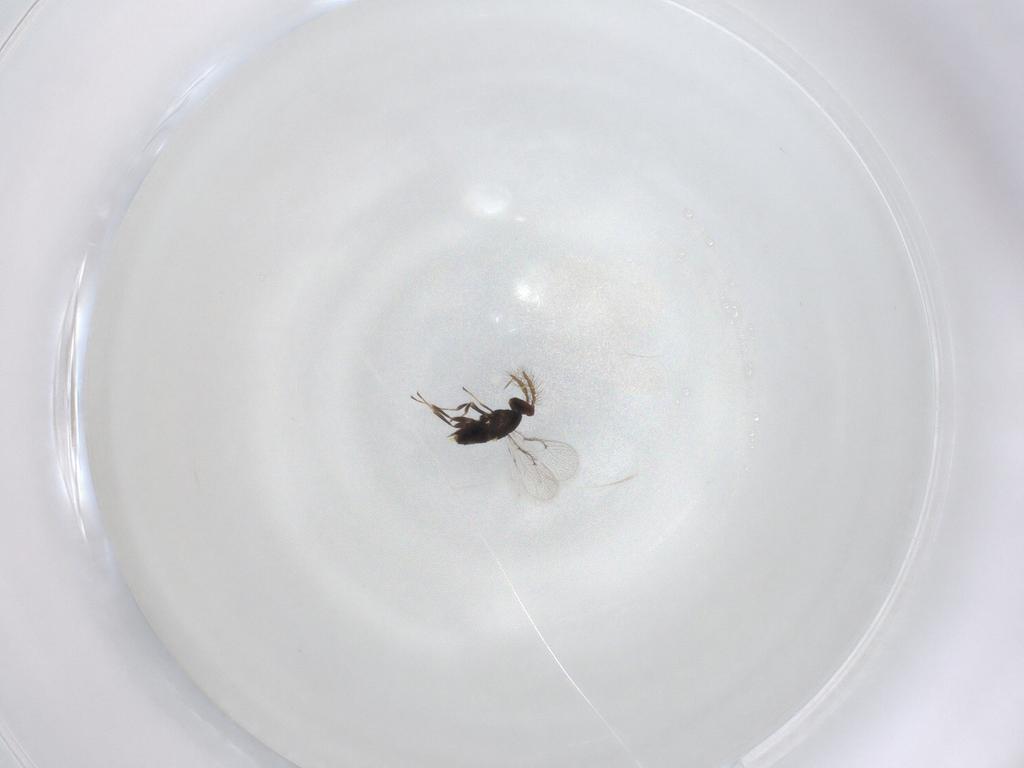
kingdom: Animalia
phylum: Arthropoda
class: Insecta
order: Hymenoptera
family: Trichogrammatidae
